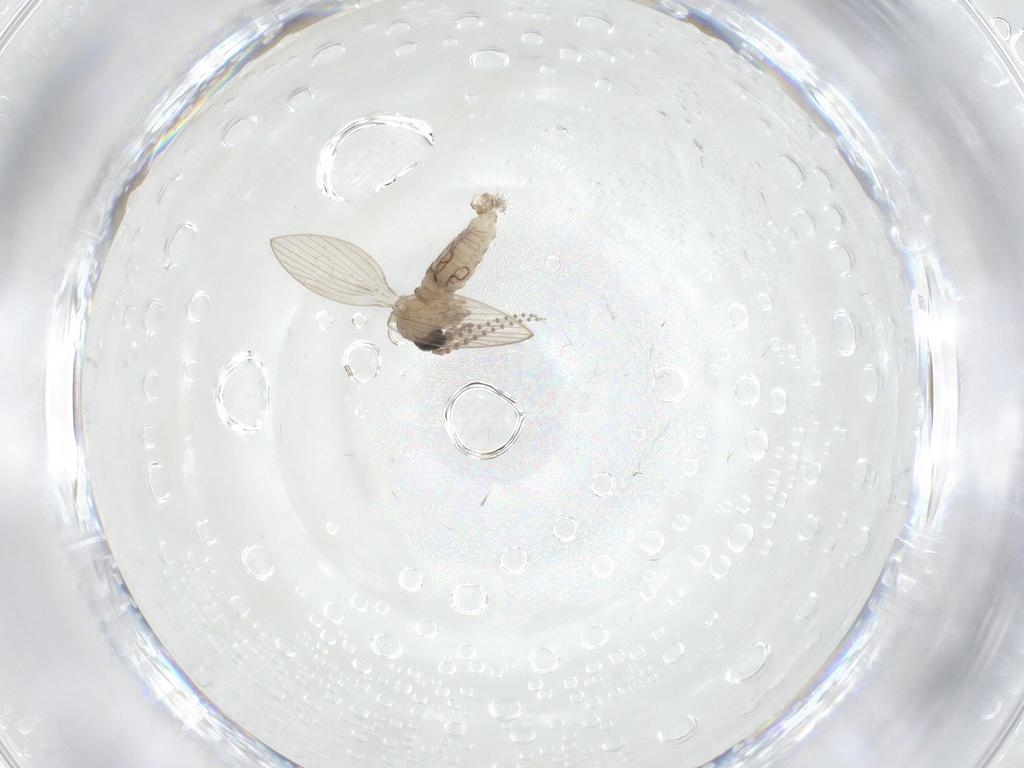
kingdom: Animalia
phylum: Arthropoda
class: Insecta
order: Diptera
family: Psychodidae
